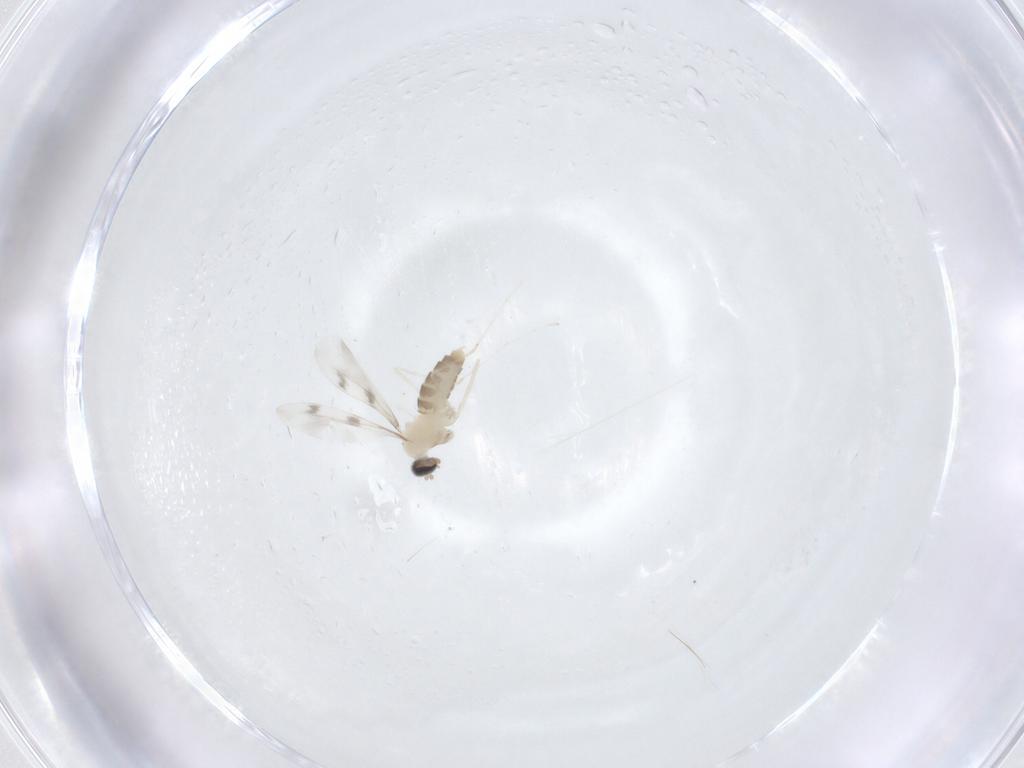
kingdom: Animalia
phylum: Arthropoda
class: Insecta
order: Diptera
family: Cecidomyiidae
